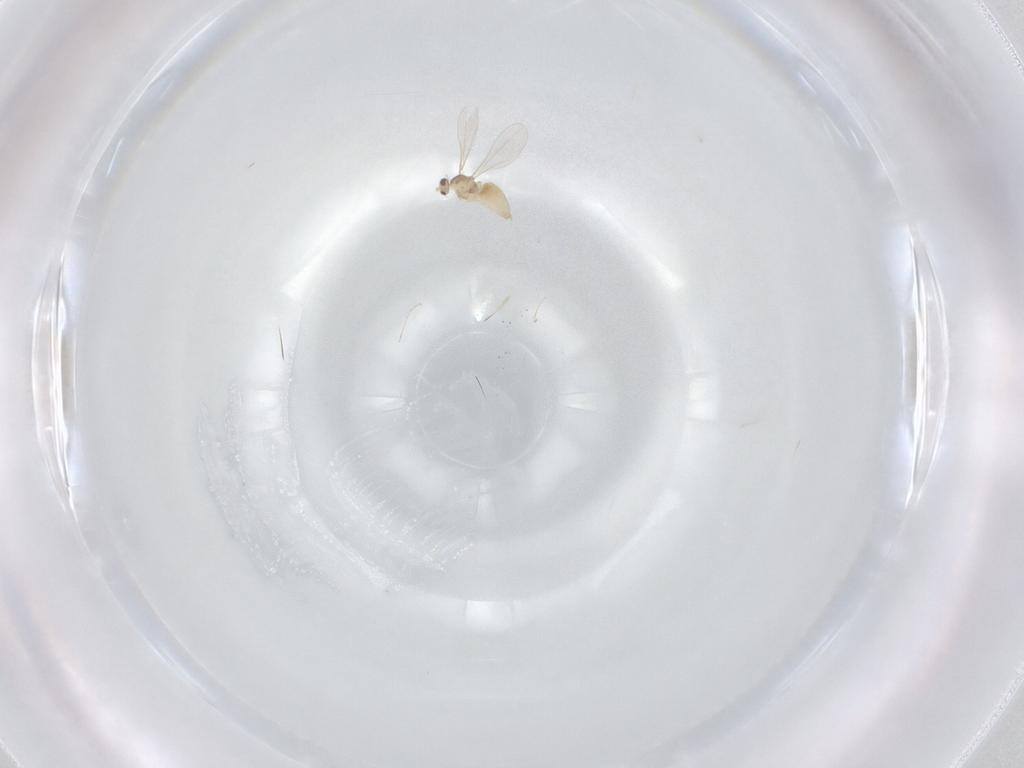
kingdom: Animalia
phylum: Arthropoda
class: Insecta
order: Diptera
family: Cecidomyiidae
